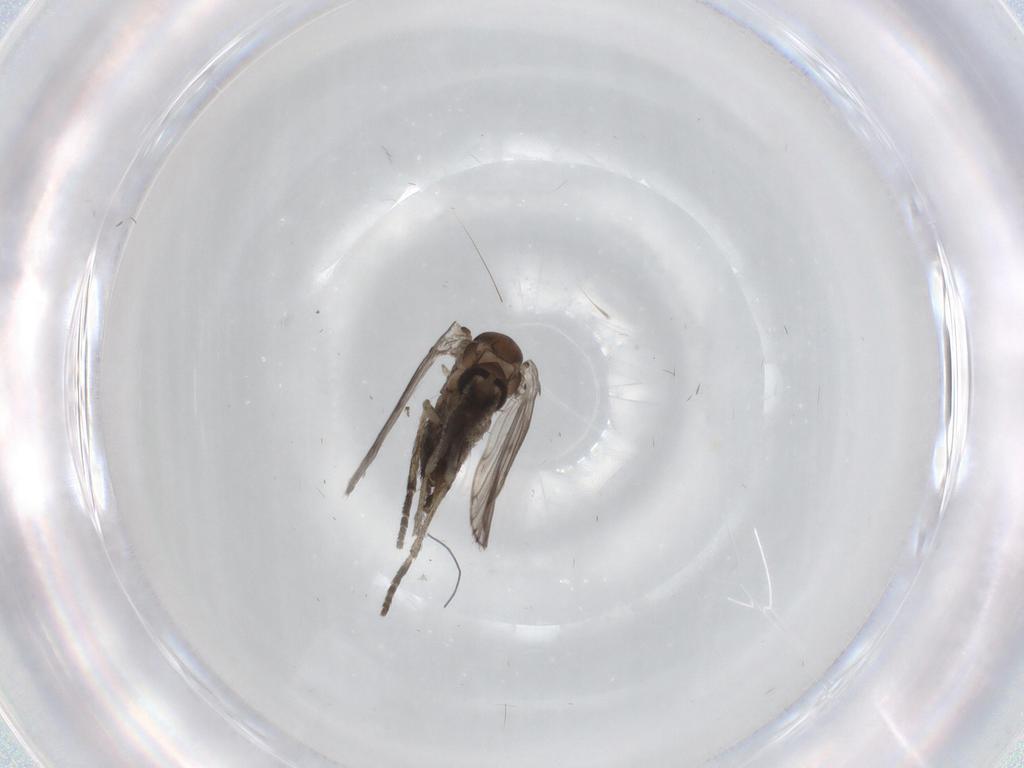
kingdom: Animalia
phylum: Arthropoda
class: Insecta
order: Diptera
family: Psychodidae
